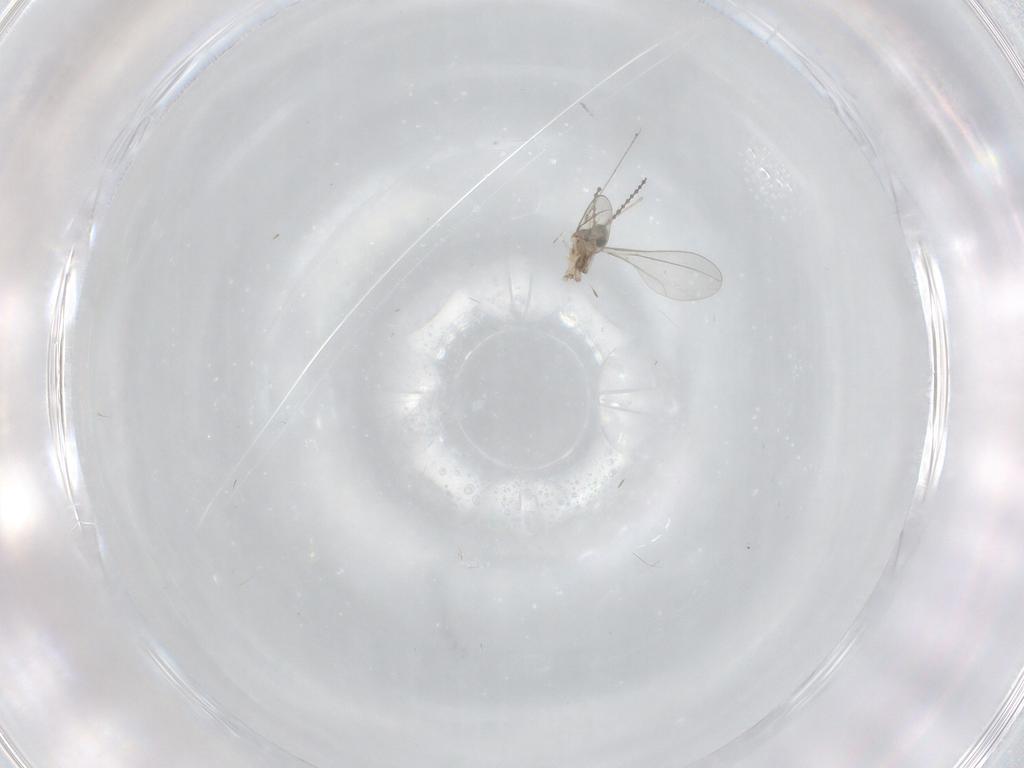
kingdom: Animalia
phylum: Arthropoda
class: Insecta
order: Diptera
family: Cecidomyiidae
